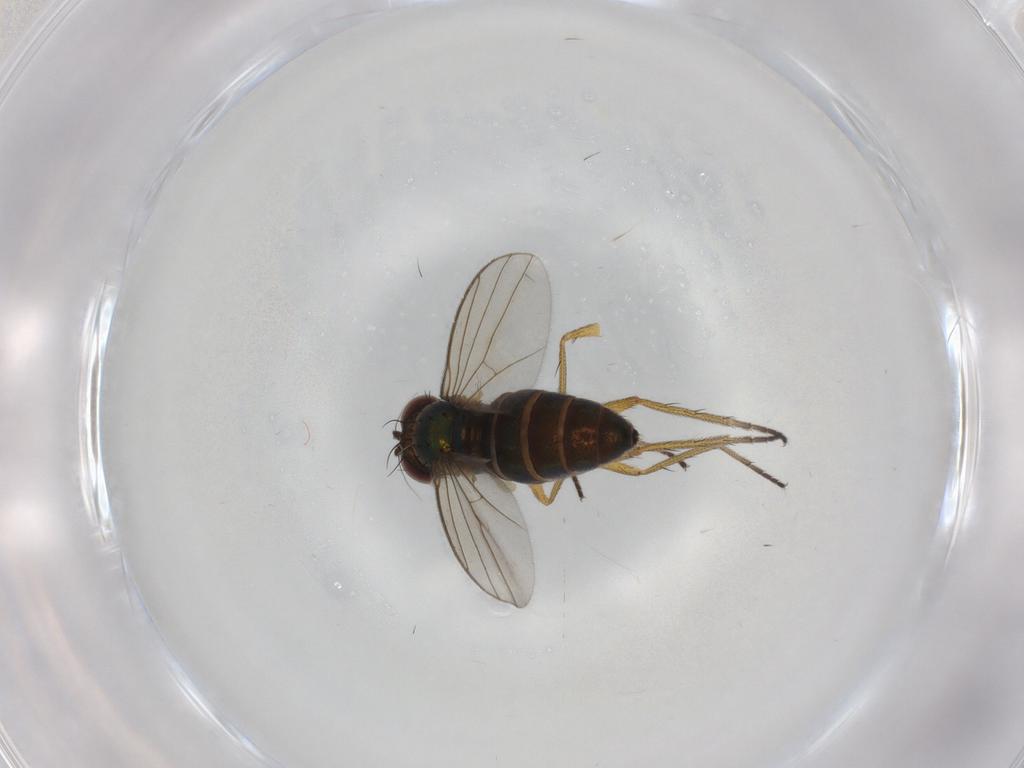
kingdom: Animalia
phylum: Arthropoda
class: Insecta
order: Diptera
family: Dolichopodidae
